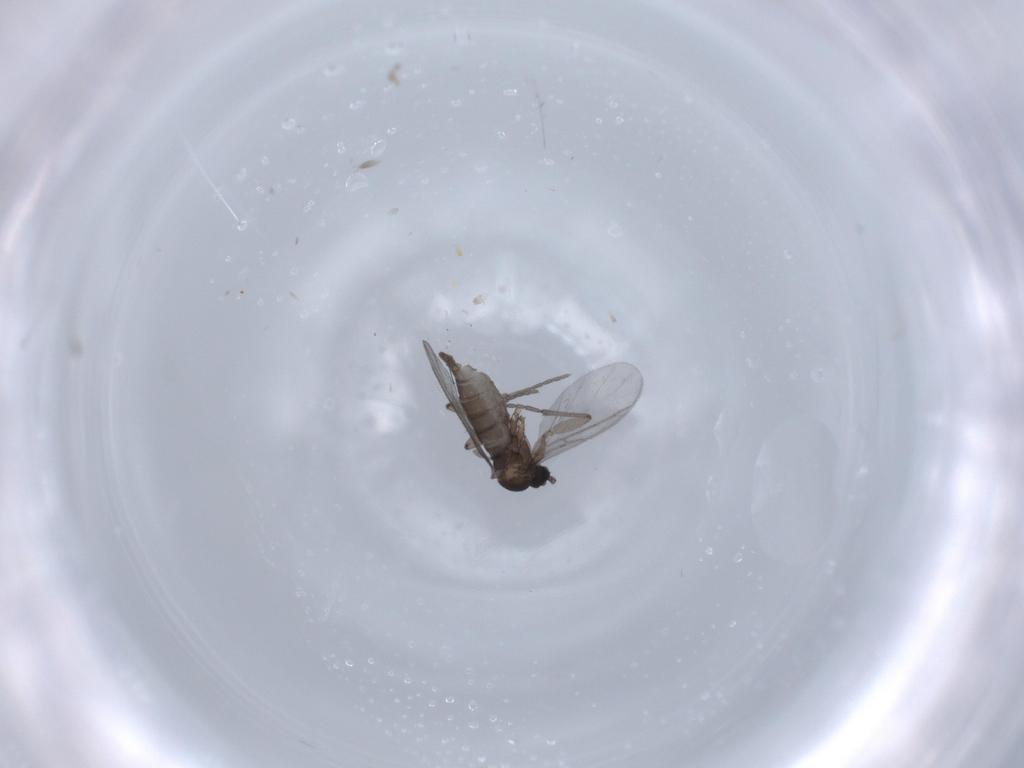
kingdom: Animalia
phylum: Arthropoda
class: Insecta
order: Diptera
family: Sciaridae
